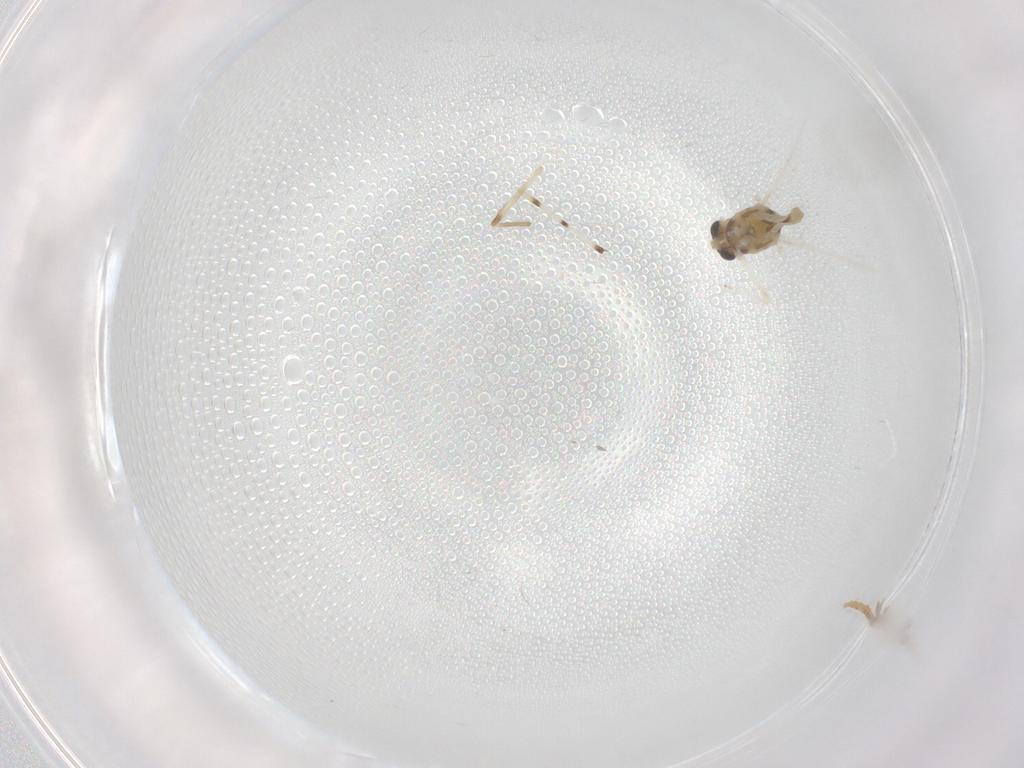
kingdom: Animalia
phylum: Arthropoda
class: Insecta
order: Diptera
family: Chironomidae
